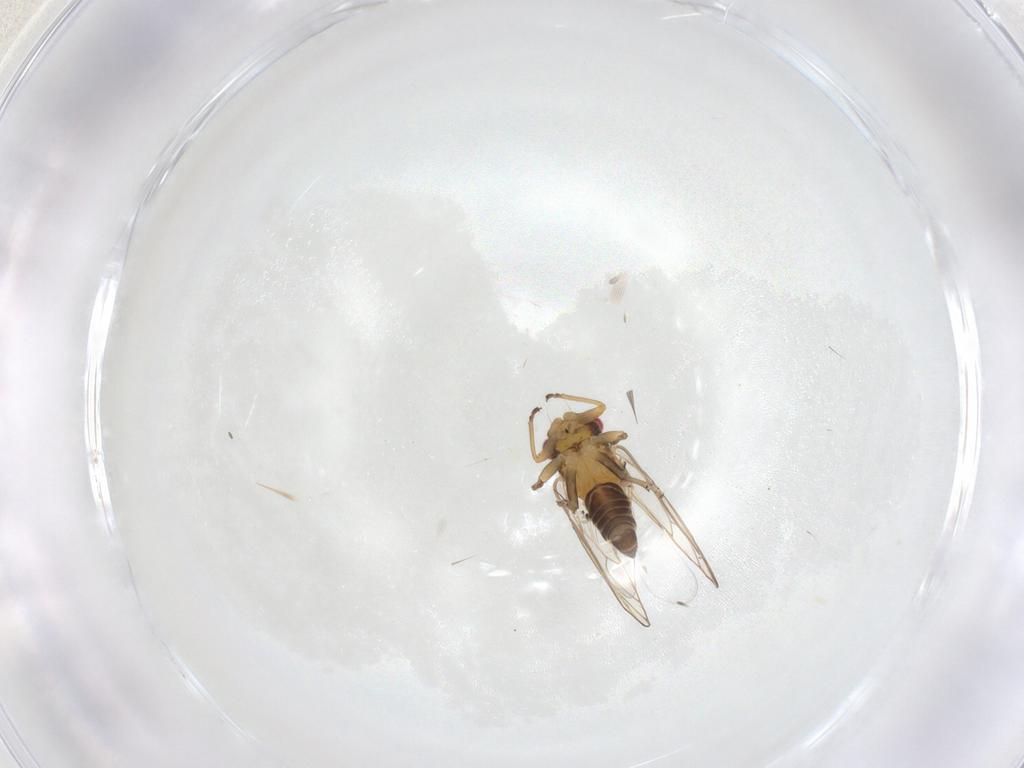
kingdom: Animalia
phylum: Arthropoda
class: Insecta
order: Hemiptera
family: Psyllidae
